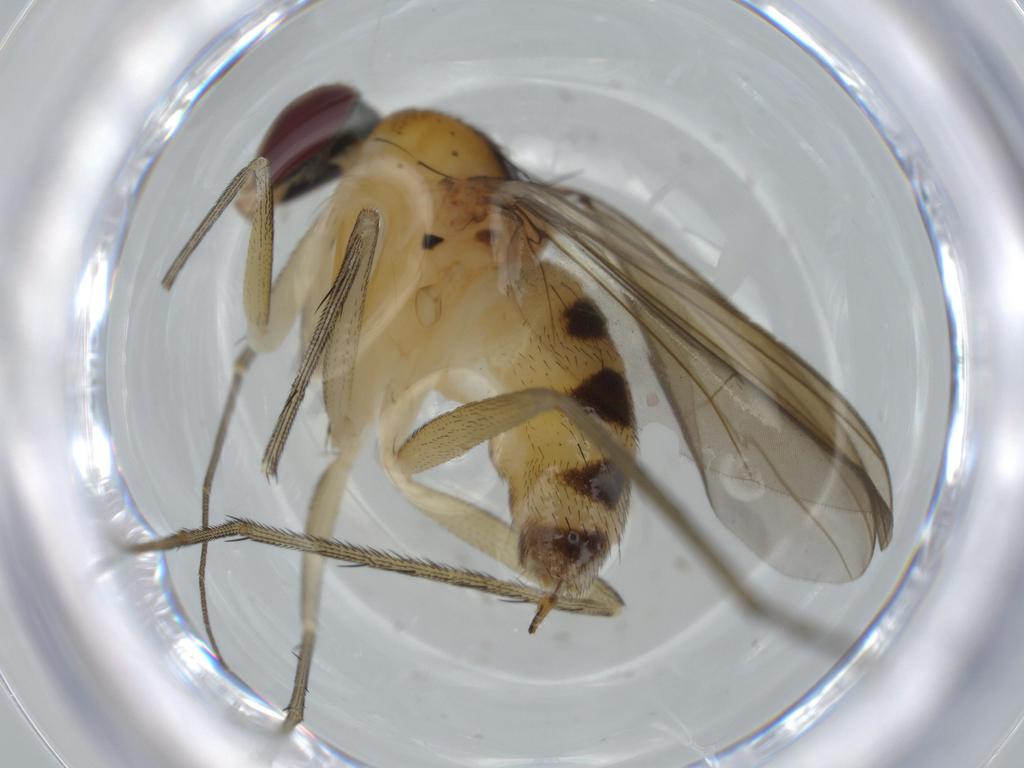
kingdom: Animalia
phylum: Arthropoda
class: Insecta
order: Diptera
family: Dolichopodidae
